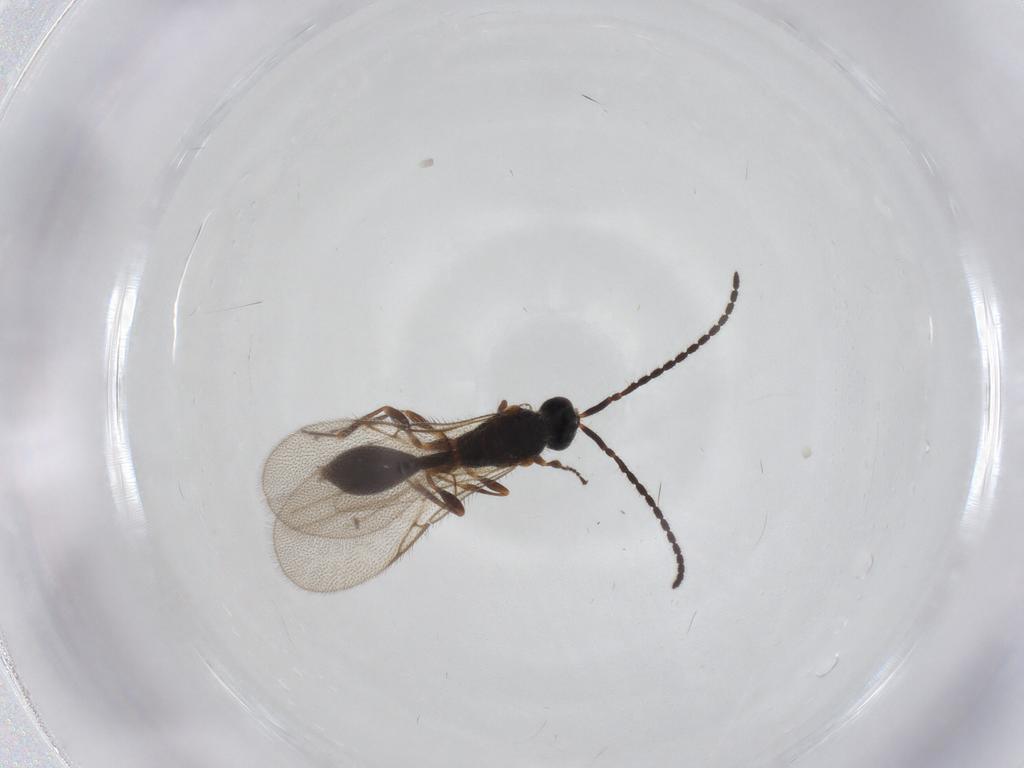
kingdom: Animalia
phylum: Arthropoda
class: Insecta
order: Hymenoptera
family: Diapriidae
